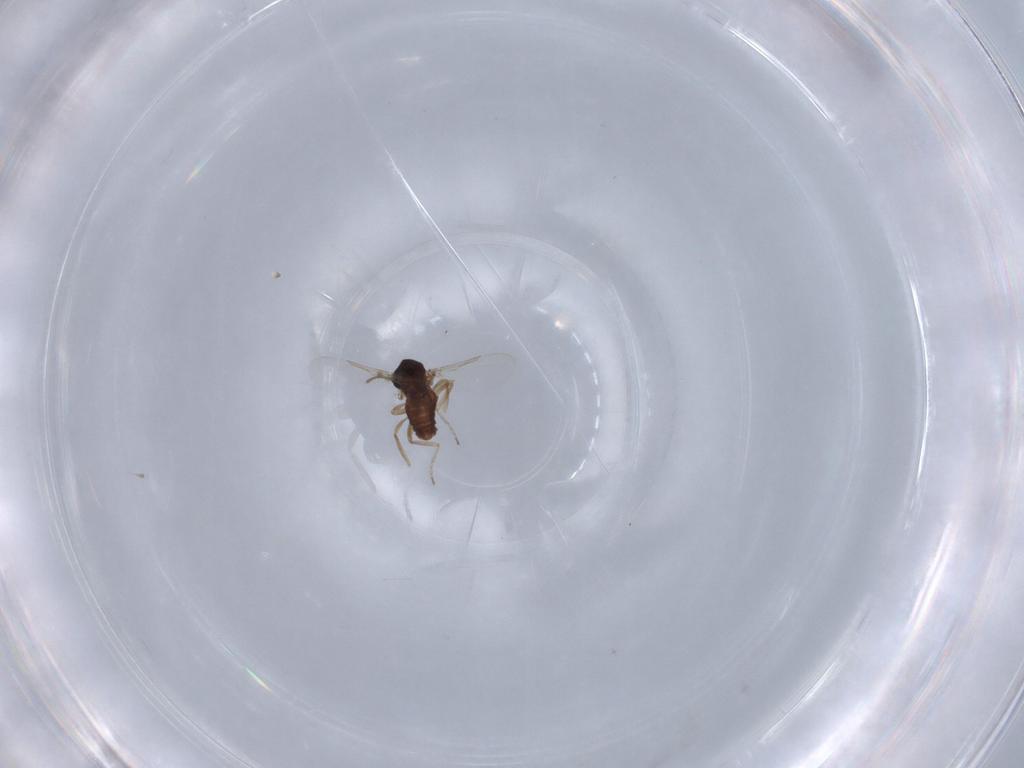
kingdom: Animalia
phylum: Arthropoda
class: Insecta
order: Diptera
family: Ceratopogonidae
